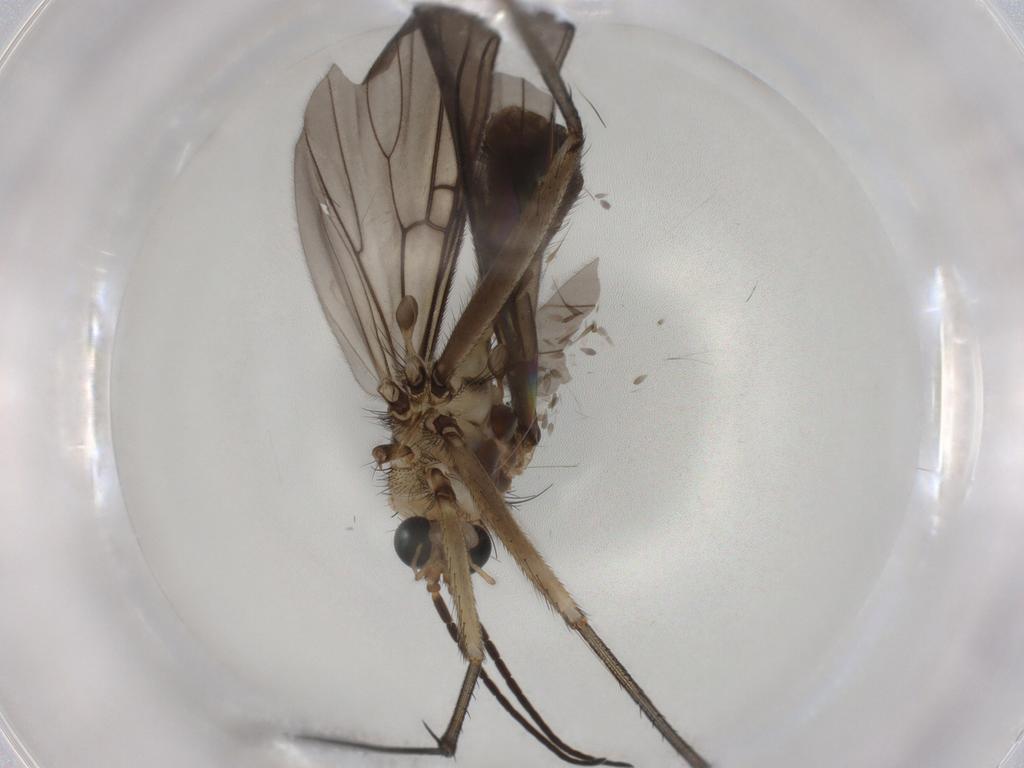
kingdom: Animalia
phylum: Arthropoda
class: Insecta
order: Diptera
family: Mycetophilidae
